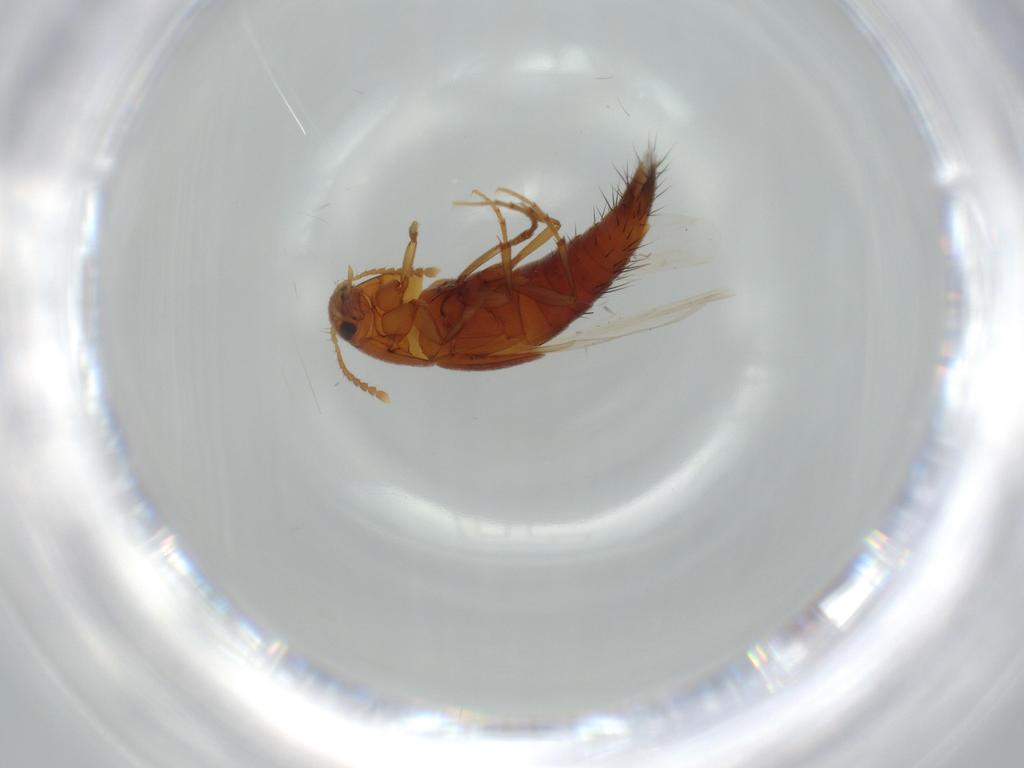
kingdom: Animalia
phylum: Arthropoda
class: Insecta
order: Coleoptera
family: Staphylinidae
